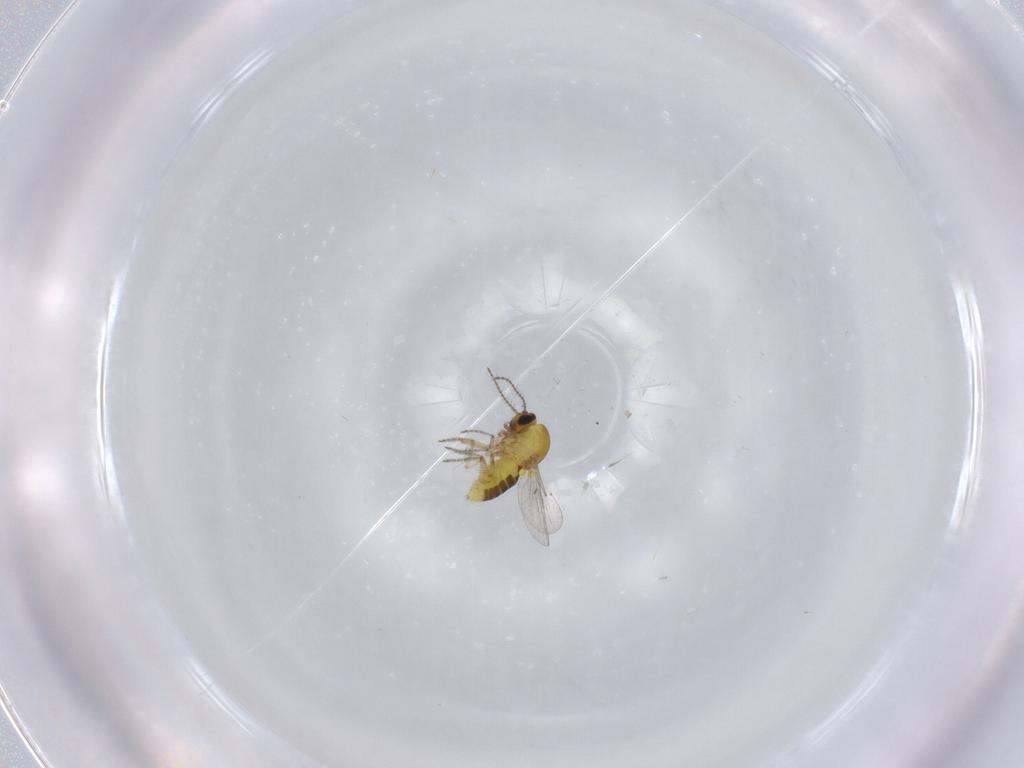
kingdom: Animalia
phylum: Arthropoda
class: Insecta
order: Diptera
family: Ceratopogonidae
